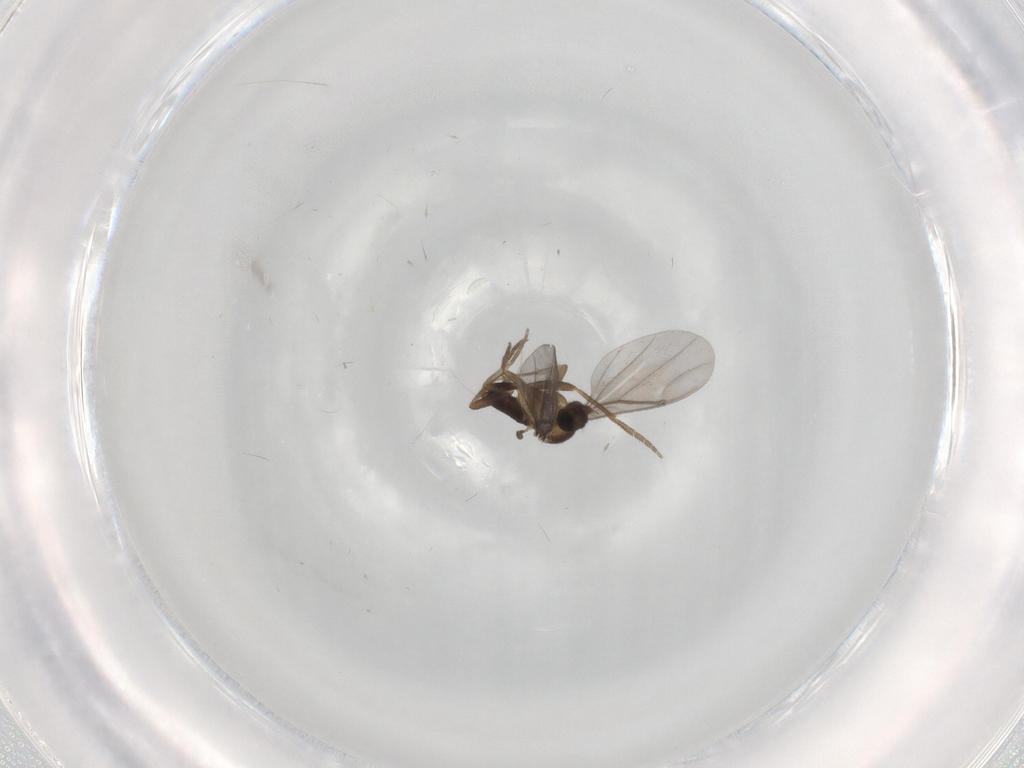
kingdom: Animalia
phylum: Arthropoda
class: Insecta
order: Diptera
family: Sphaeroceridae
